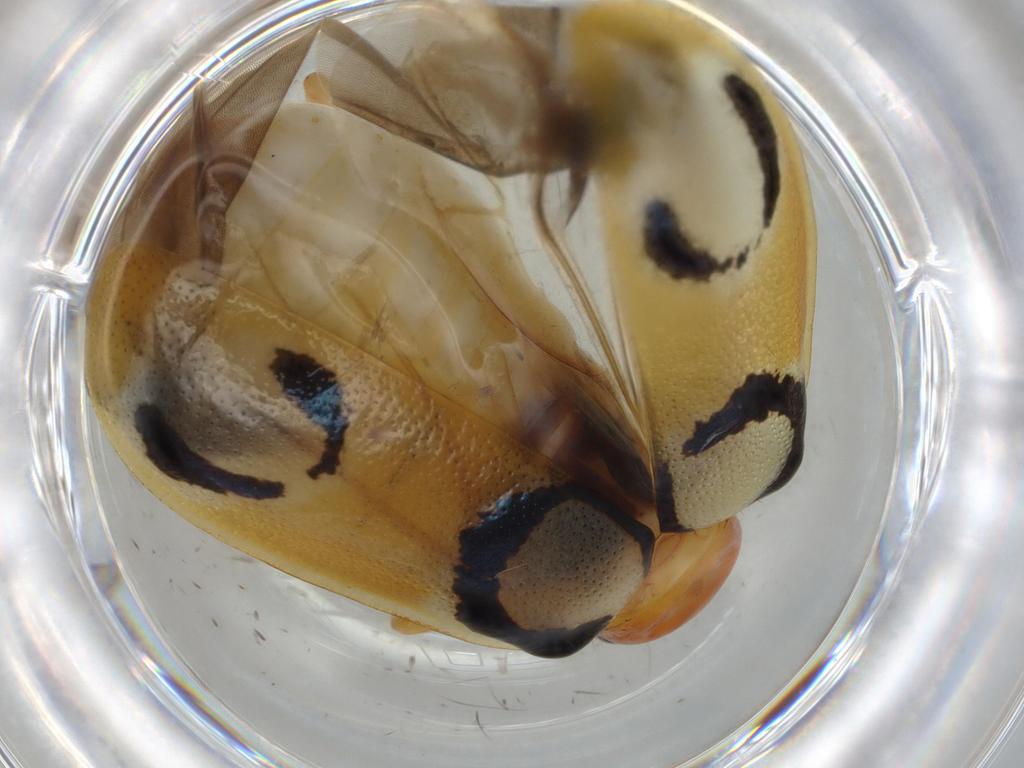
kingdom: Animalia
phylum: Arthropoda
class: Insecta
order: Coleoptera
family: Chrysomelidae
